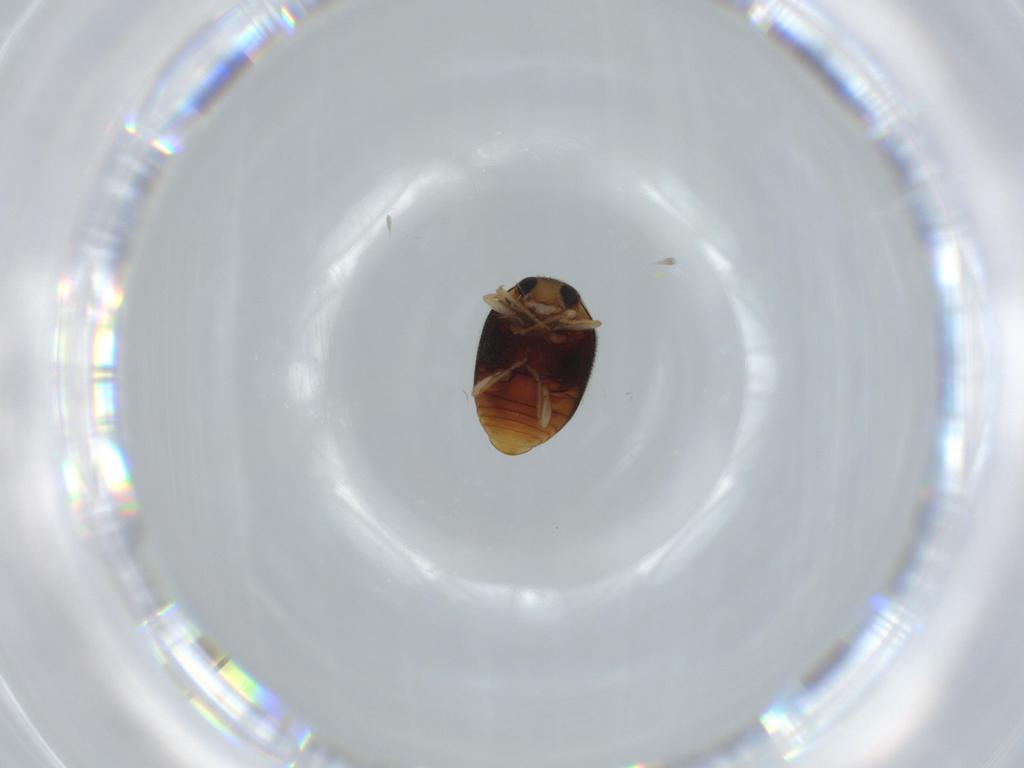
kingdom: Animalia
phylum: Arthropoda
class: Insecta
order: Coleoptera
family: Coccinellidae
